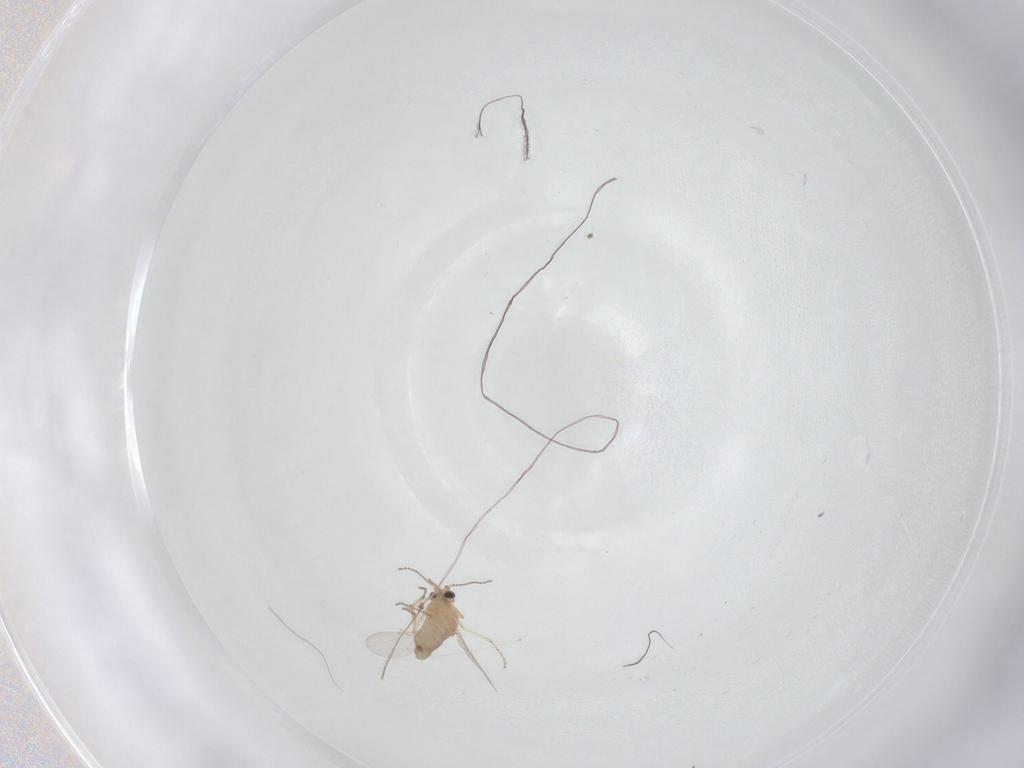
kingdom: Animalia
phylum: Arthropoda
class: Insecta
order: Diptera
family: Ceratopogonidae
